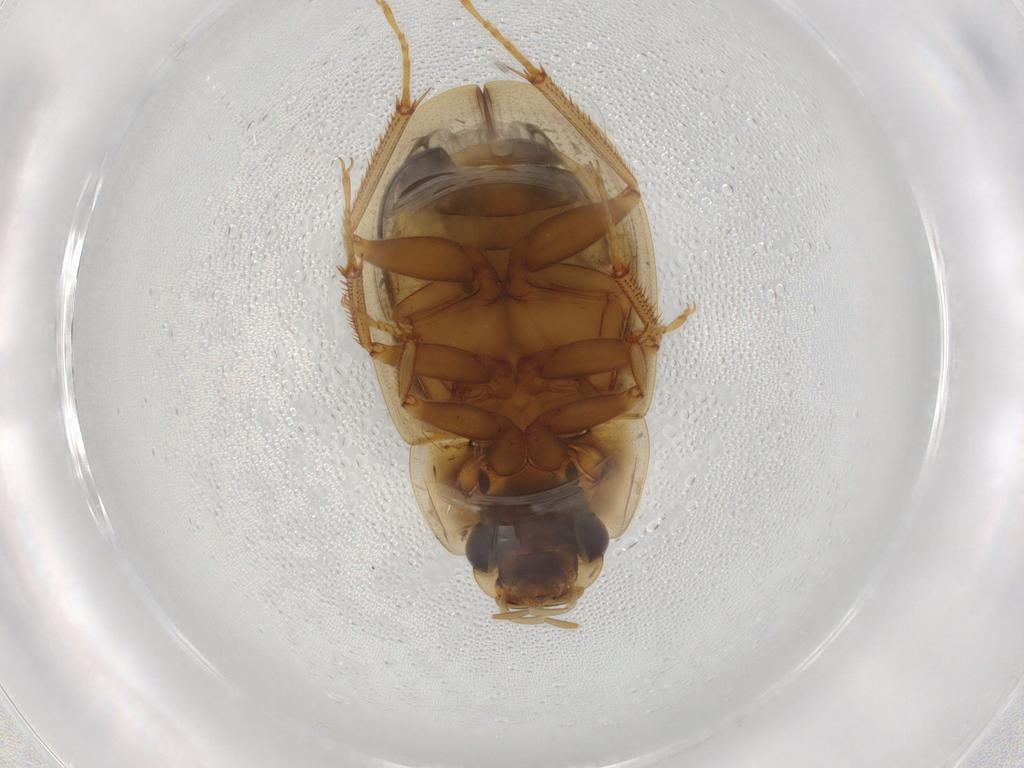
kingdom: Animalia
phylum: Arthropoda
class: Insecta
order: Coleoptera
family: Hydrophilidae
